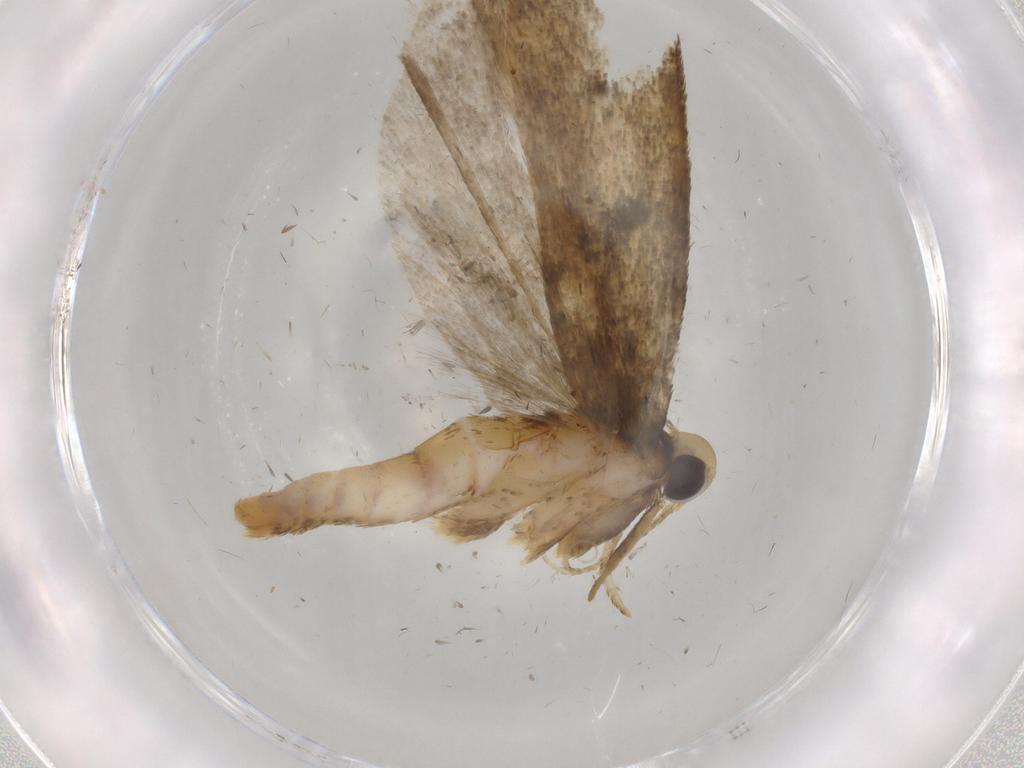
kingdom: Animalia
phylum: Arthropoda
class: Insecta
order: Lepidoptera
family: Autostichidae
